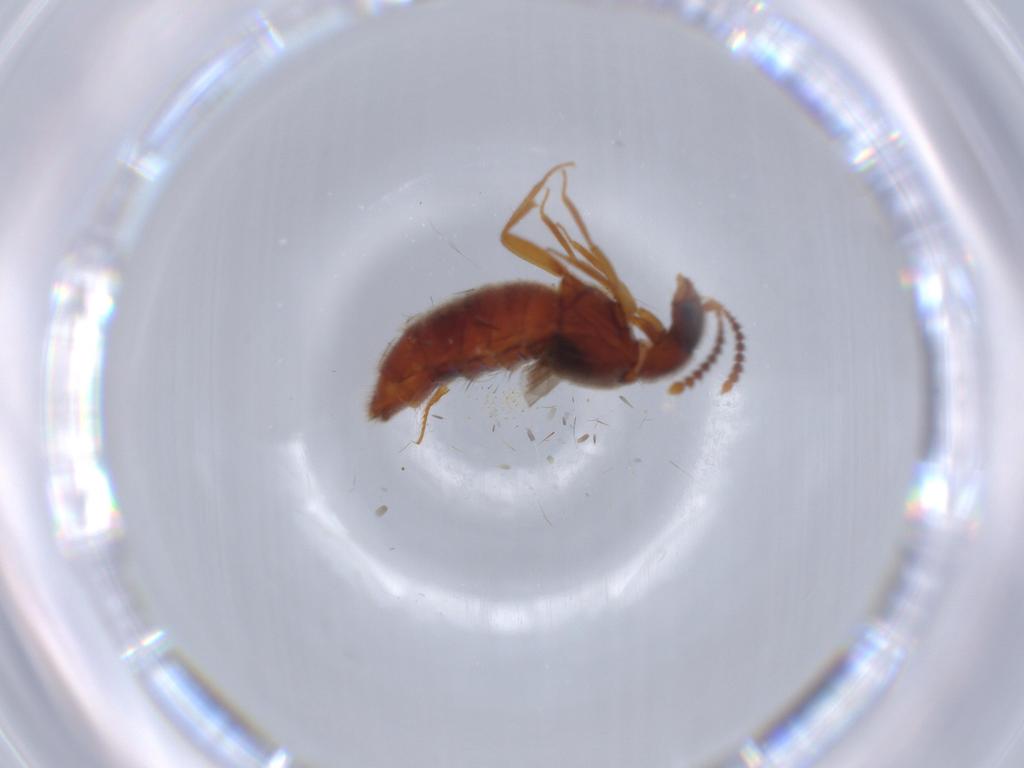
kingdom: Animalia
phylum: Arthropoda
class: Insecta
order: Coleoptera
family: Staphylinidae
